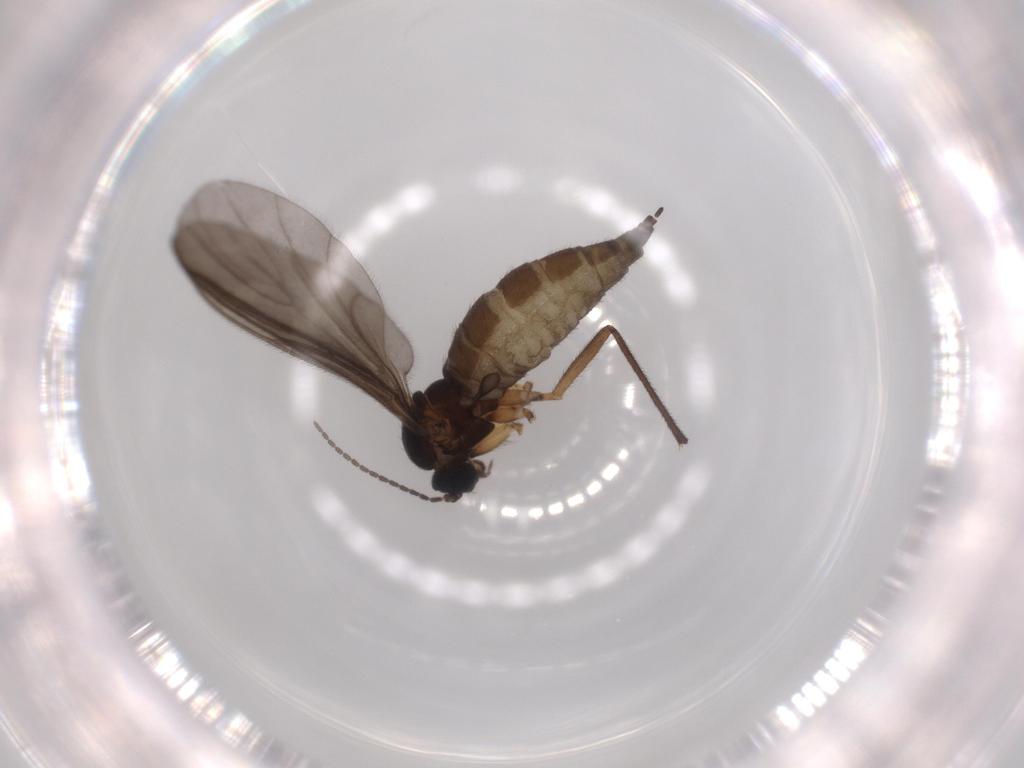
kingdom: Animalia
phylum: Arthropoda
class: Insecta
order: Diptera
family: Sciaridae
